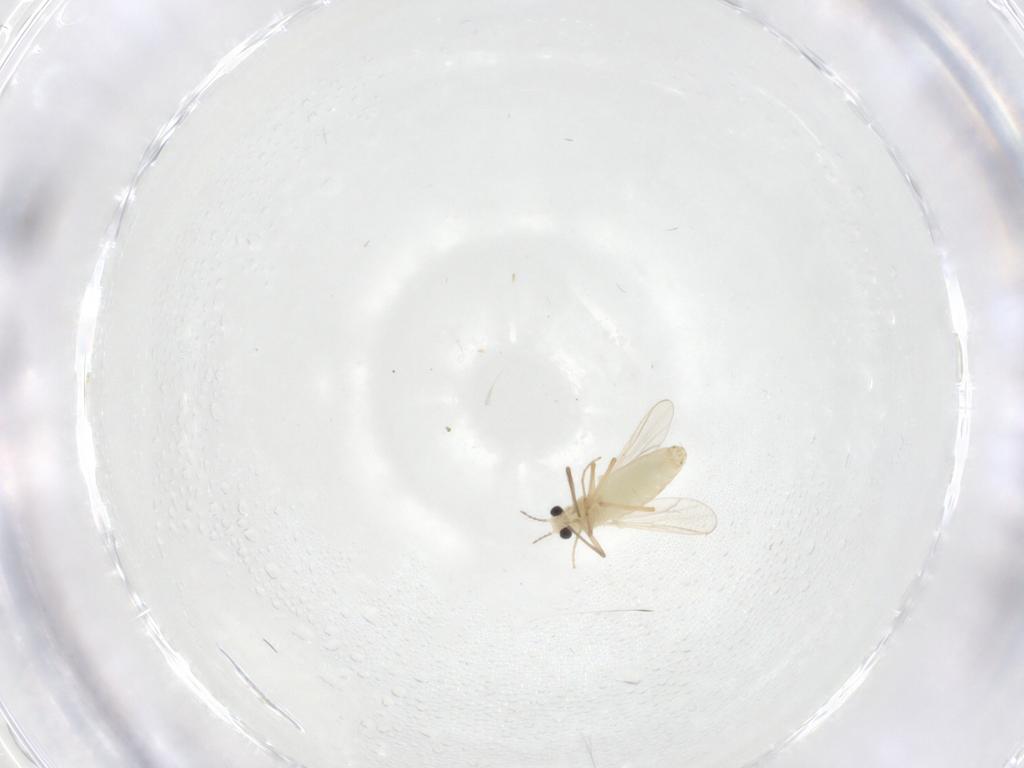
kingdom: Animalia
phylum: Arthropoda
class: Insecta
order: Diptera
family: Chironomidae
